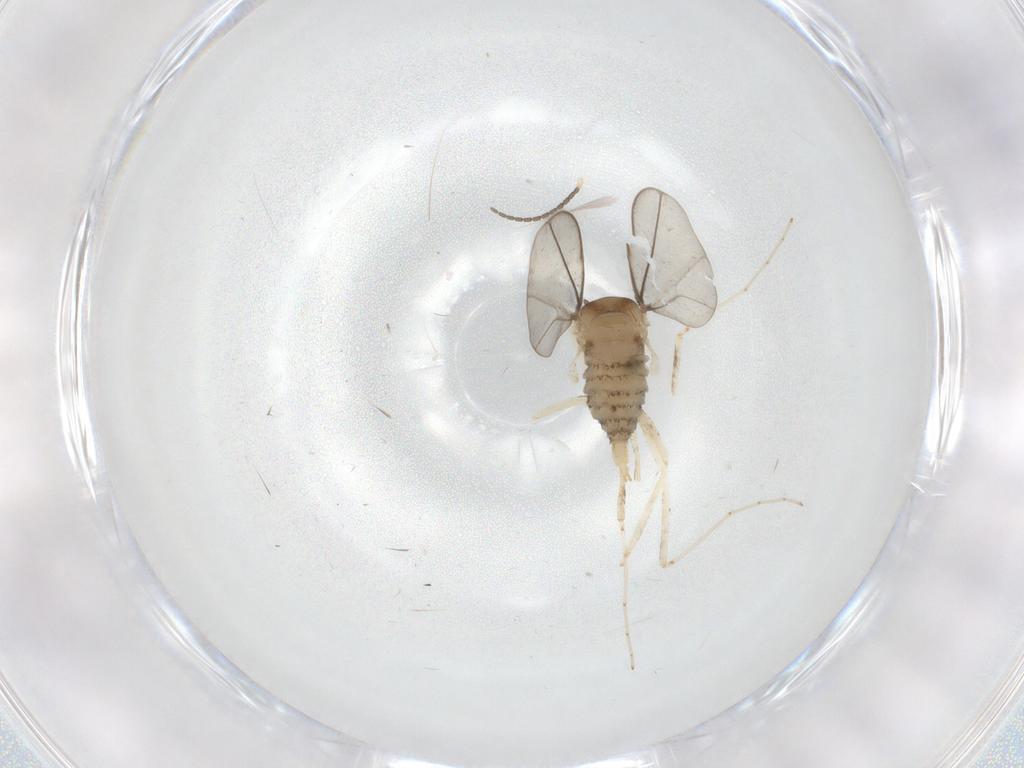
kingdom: Animalia
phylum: Arthropoda
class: Insecta
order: Diptera
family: Cecidomyiidae
